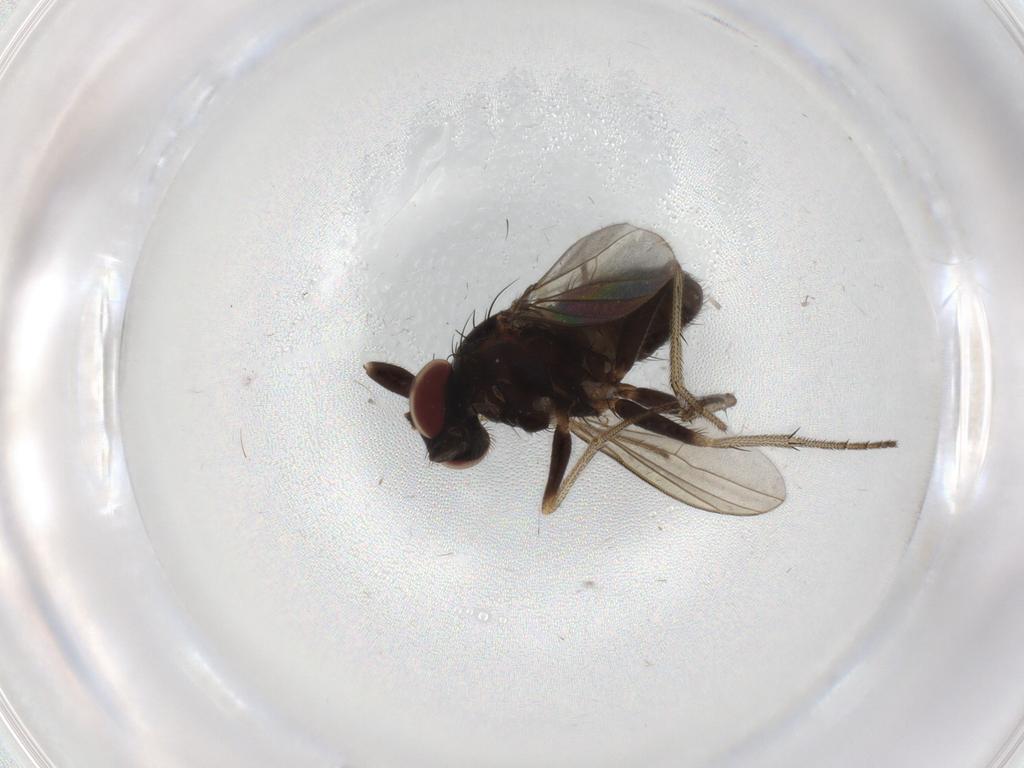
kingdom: Animalia
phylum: Arthropoda
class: Insecta
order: Diptera
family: Dolichopodidae
